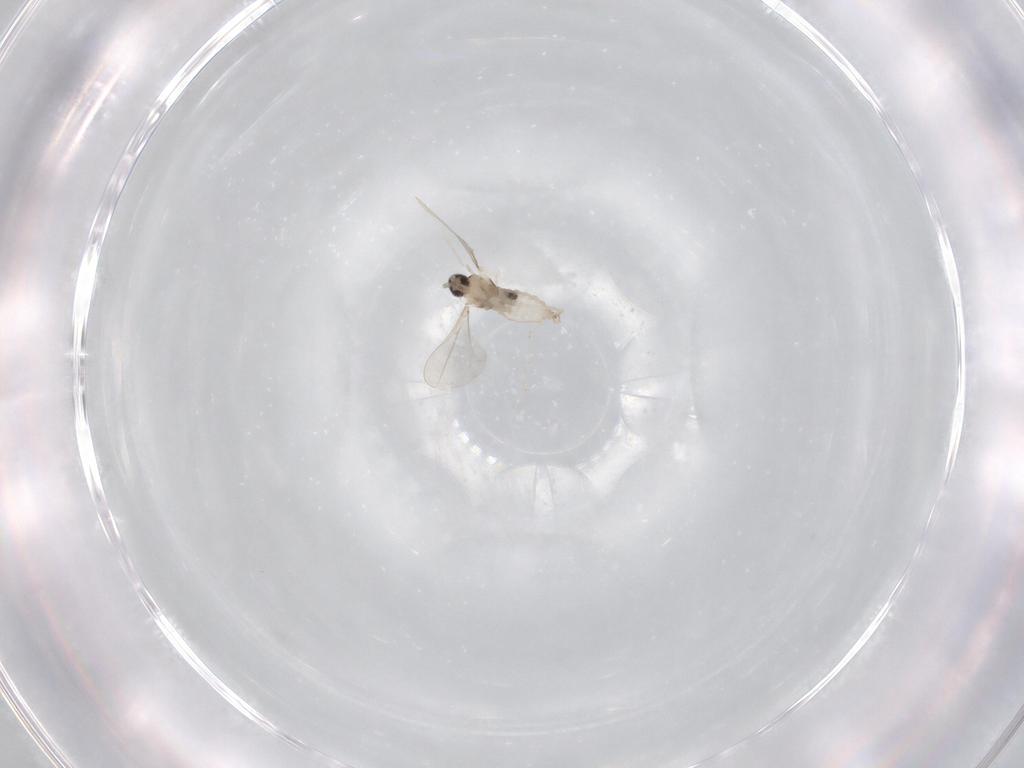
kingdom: Animalia
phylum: Arthropoda
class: Insecta
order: Diptera
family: Cecidomyiidae
